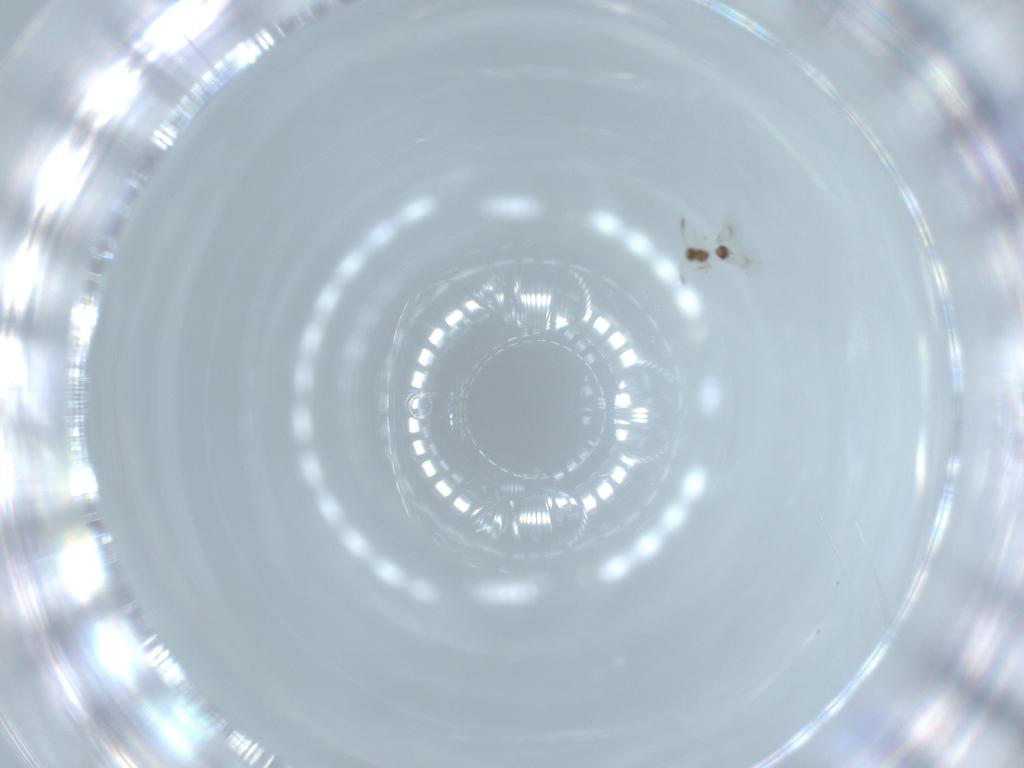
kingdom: Animalia
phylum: Arthropoda
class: Insecta
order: Hymenoptera
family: Mymarommatidae
